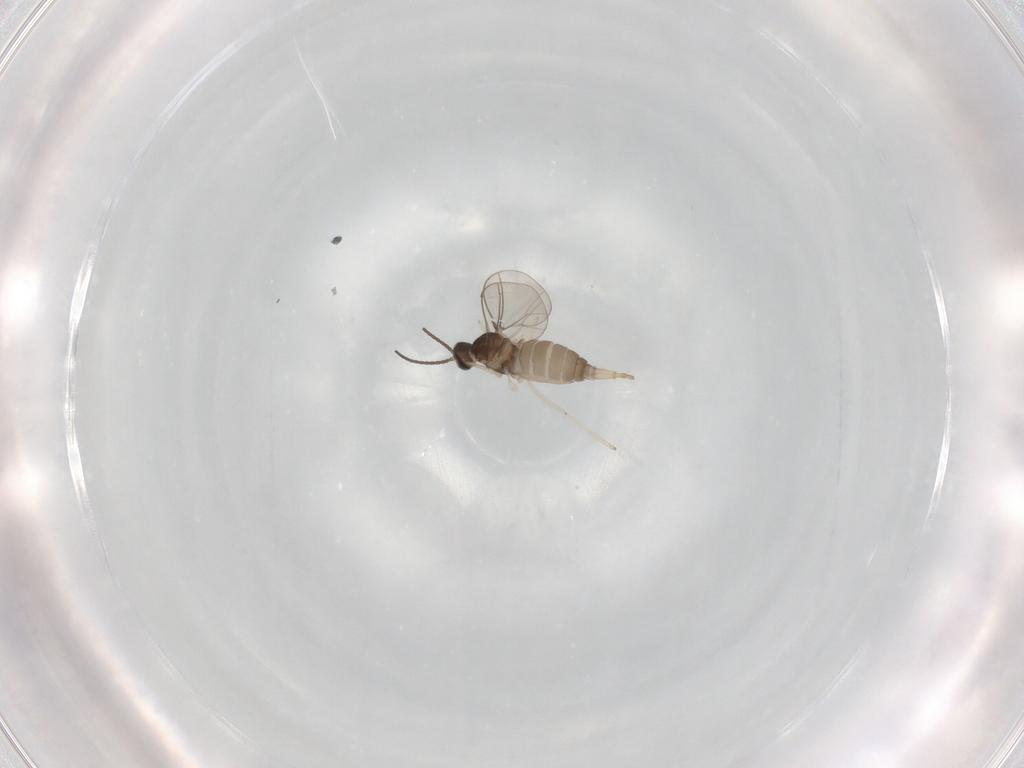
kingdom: Animalia
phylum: Arthropoda
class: Insecta
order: Diptera
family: Cecidomyiidae
